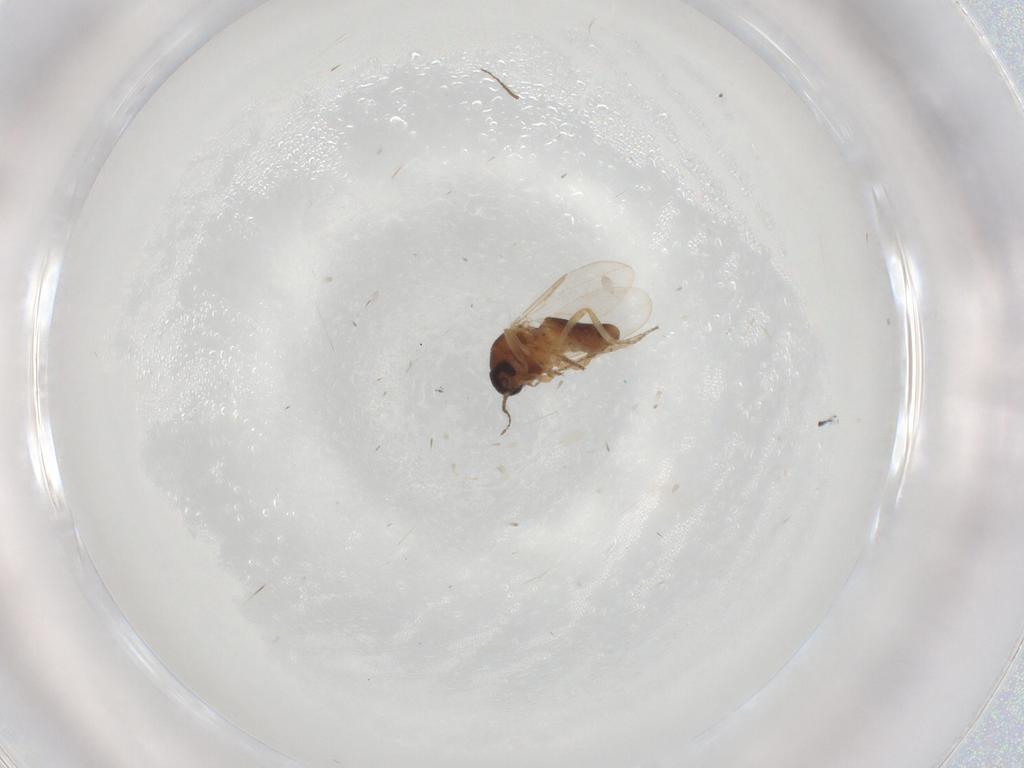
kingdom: Animalia
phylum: Arthropoda
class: Insecta
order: Diptera
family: Ceratopogonidae
